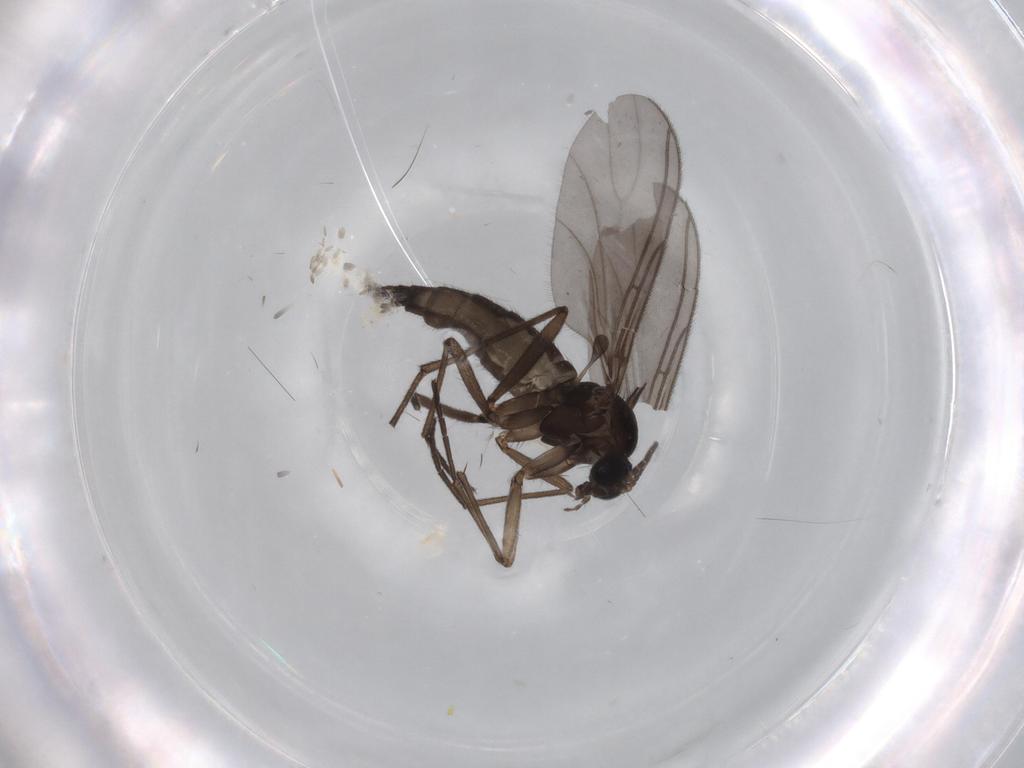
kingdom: Animalia
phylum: Arthropoda
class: Insecta
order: Diptera
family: Sciaridae
